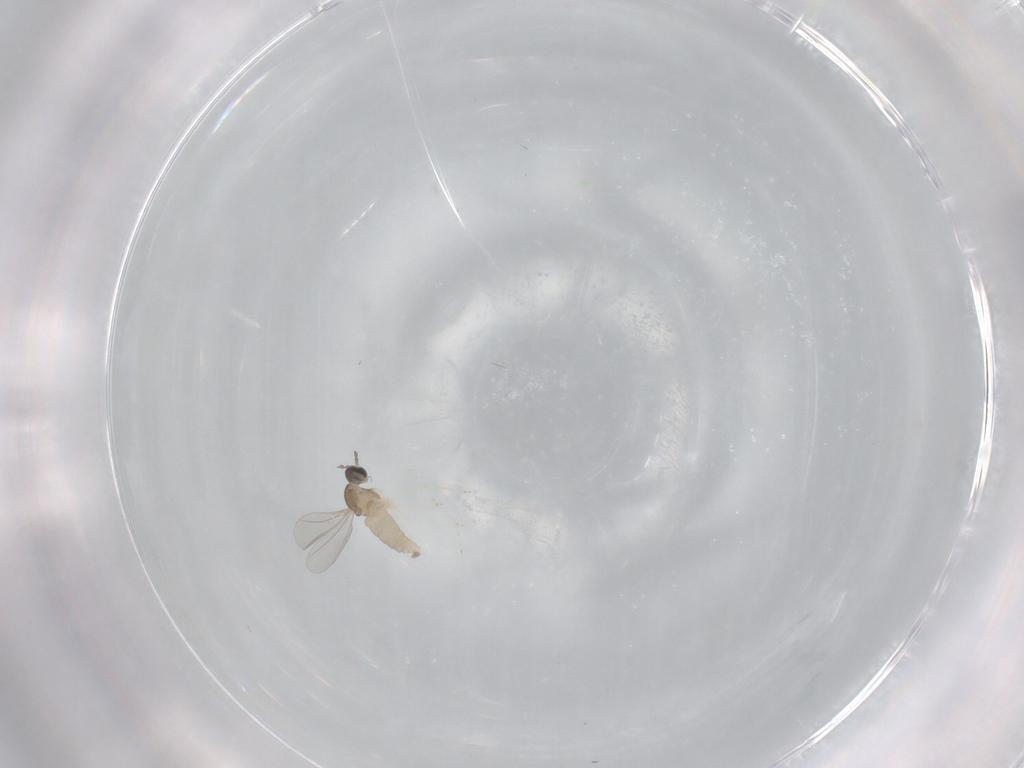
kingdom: Animalia
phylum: Arthropoda
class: Insecta
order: Diptera
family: Cecidomyiidae
